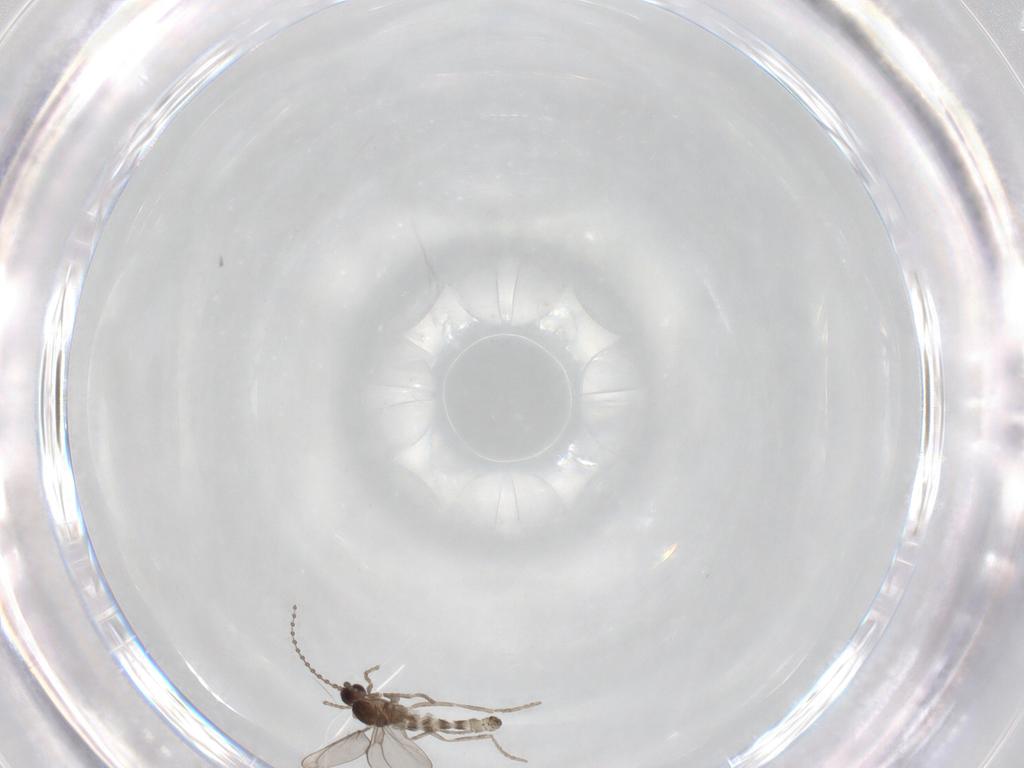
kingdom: Animalia
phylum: Arthropoda
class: Insecta
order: Diptera
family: Cecidomyiidae
